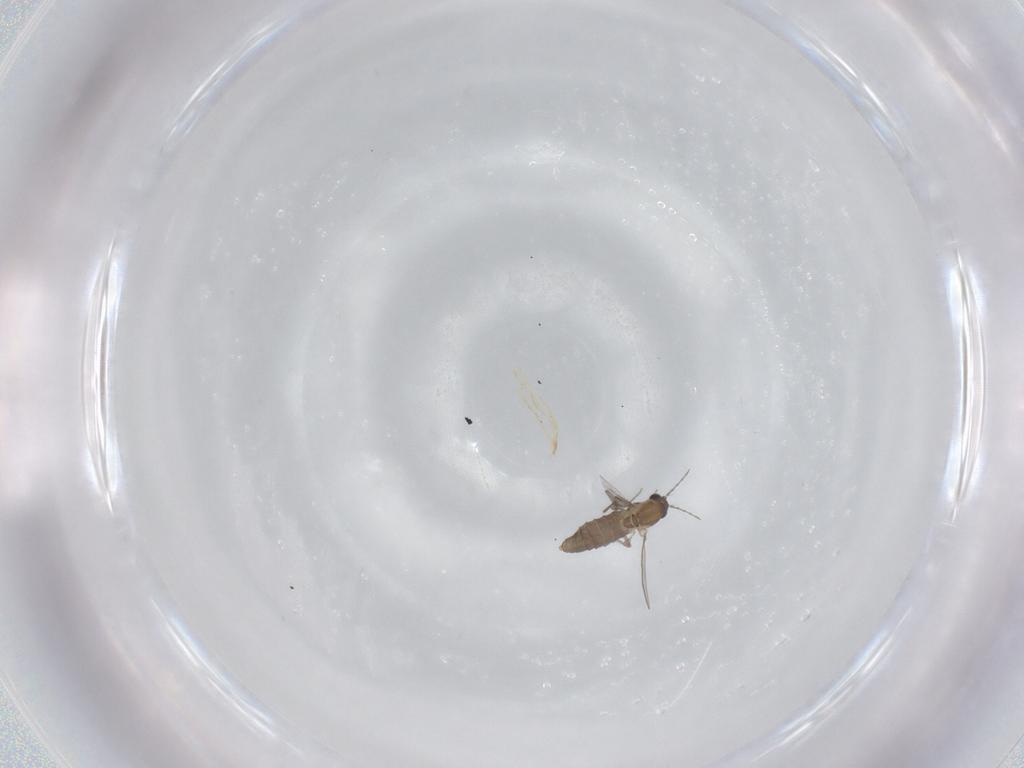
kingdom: Animalia
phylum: Arthropoda
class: Insecta
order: Diptera
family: Chironomidae
